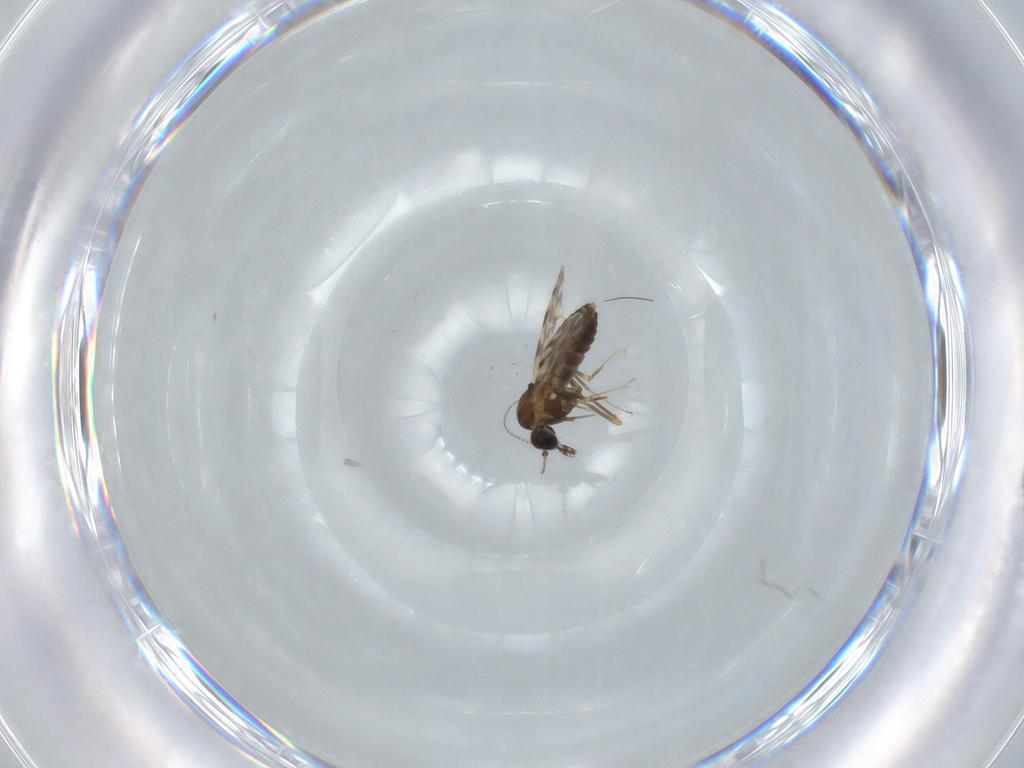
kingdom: Animalia
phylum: Arthropoda
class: Insecta
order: Diptera
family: Ceratopogonidae
